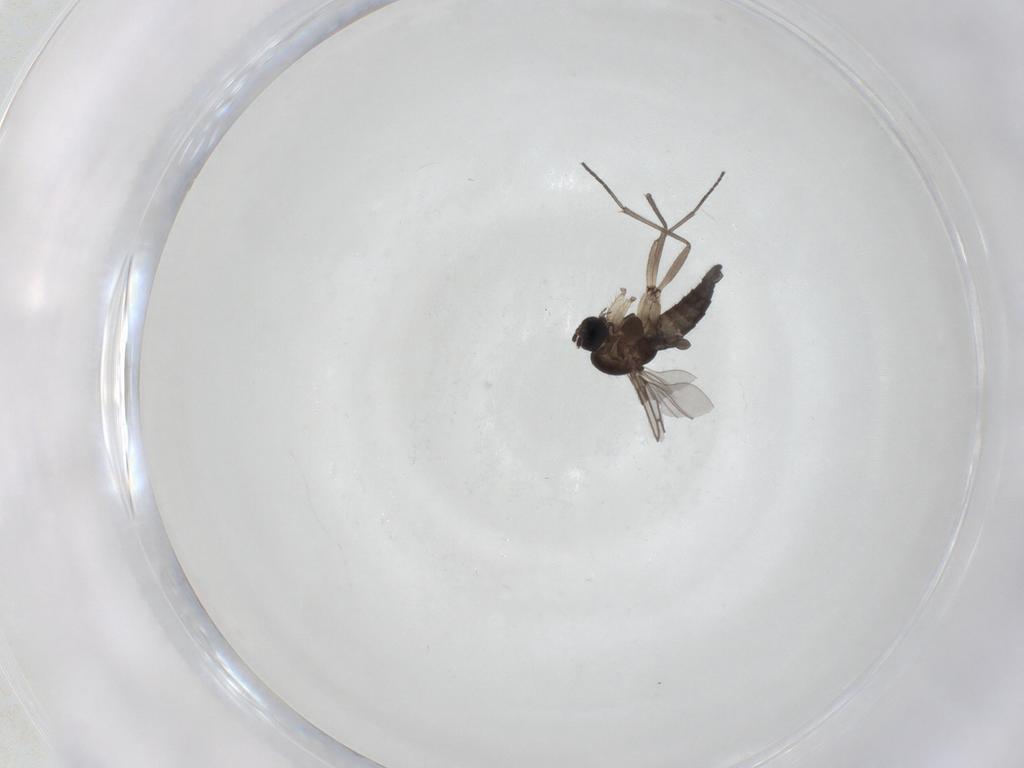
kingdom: Animalia
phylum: Arthropoda
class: Insecta
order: Diptera
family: Sciaridae
